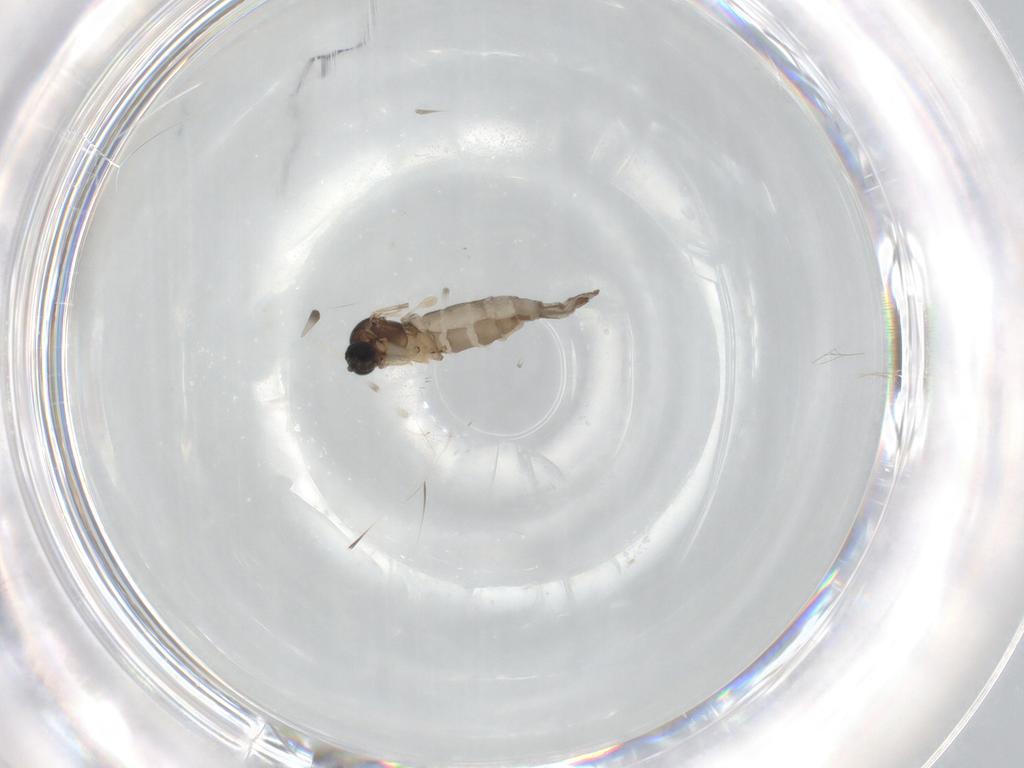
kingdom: Animalia
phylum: Arthropoda
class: Insecta
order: Diptera
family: Sciaridae
